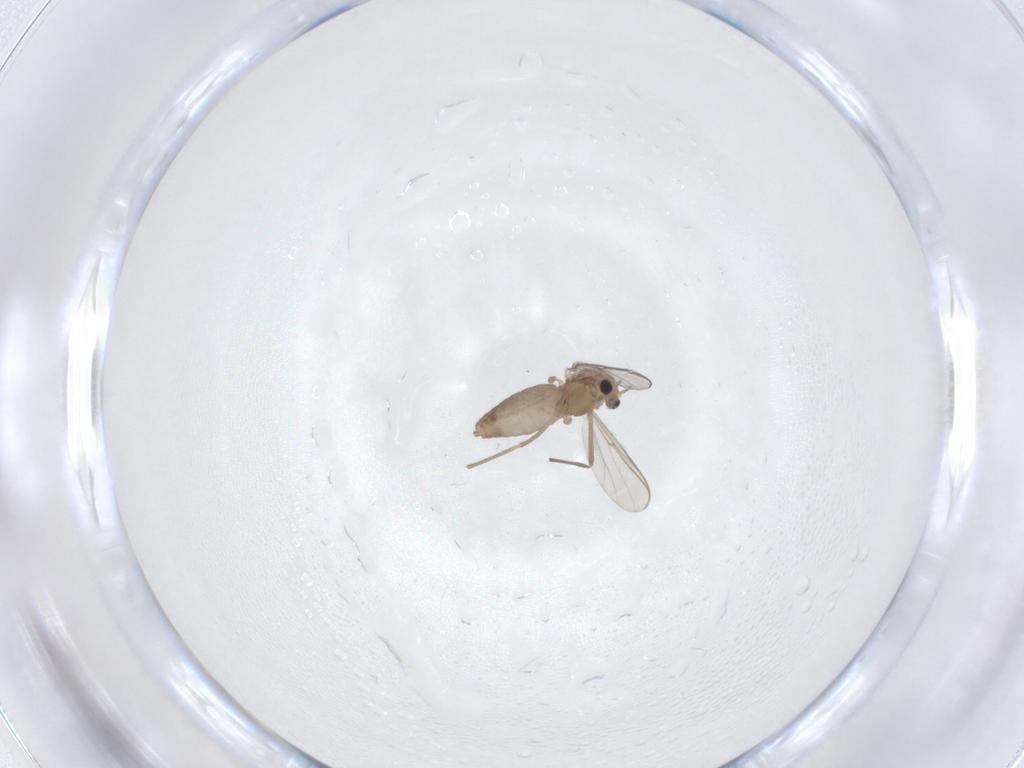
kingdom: Animalia
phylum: Arthropoda
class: Insecta
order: Diptera
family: Chironomidae
